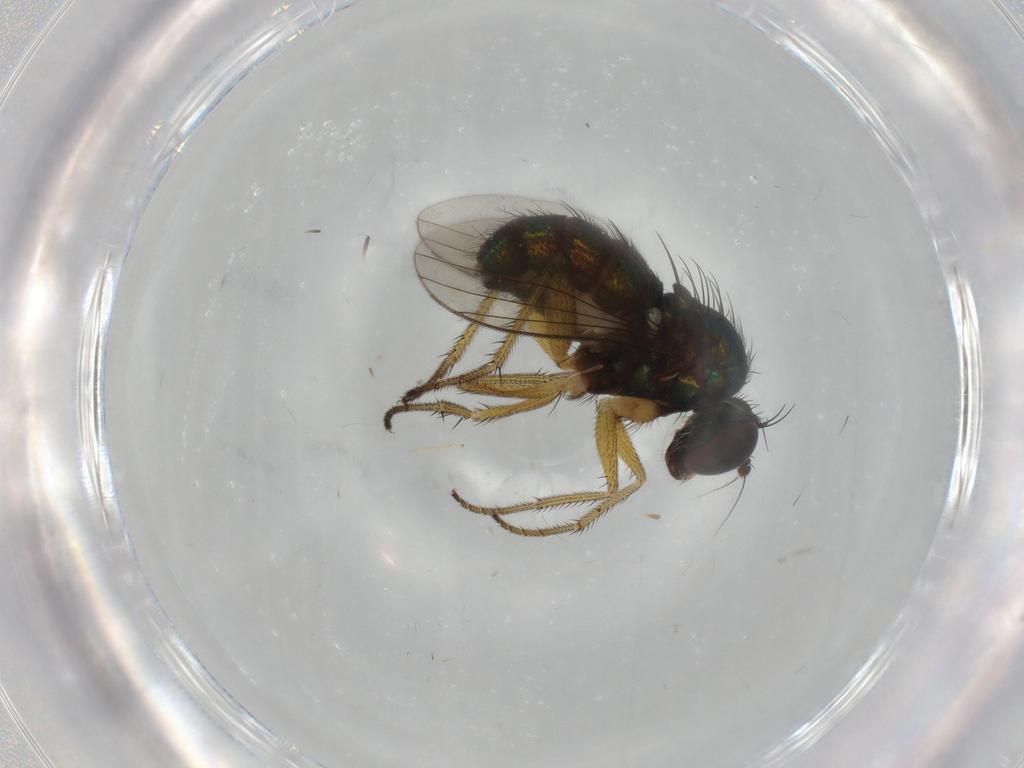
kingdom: Animalia
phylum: Arthropoda
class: Insecta
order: Diptera
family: Dolichopodidae
